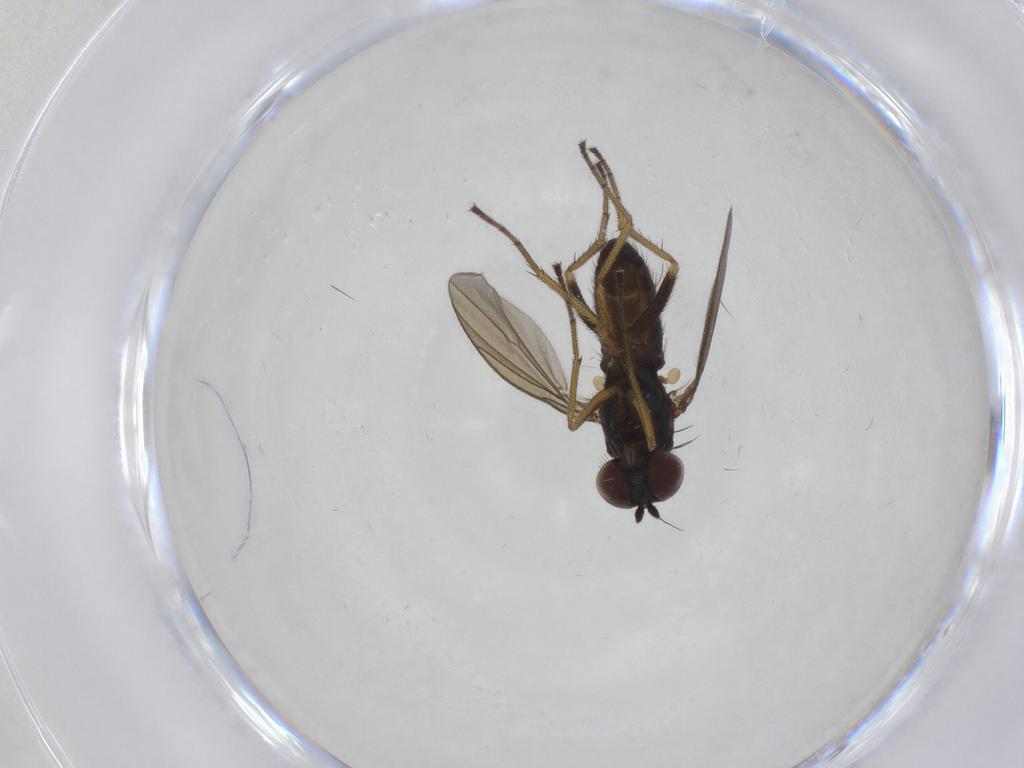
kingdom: Animalia
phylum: Arthropoda
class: Insecta
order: Diptera
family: Dolichopodidae
